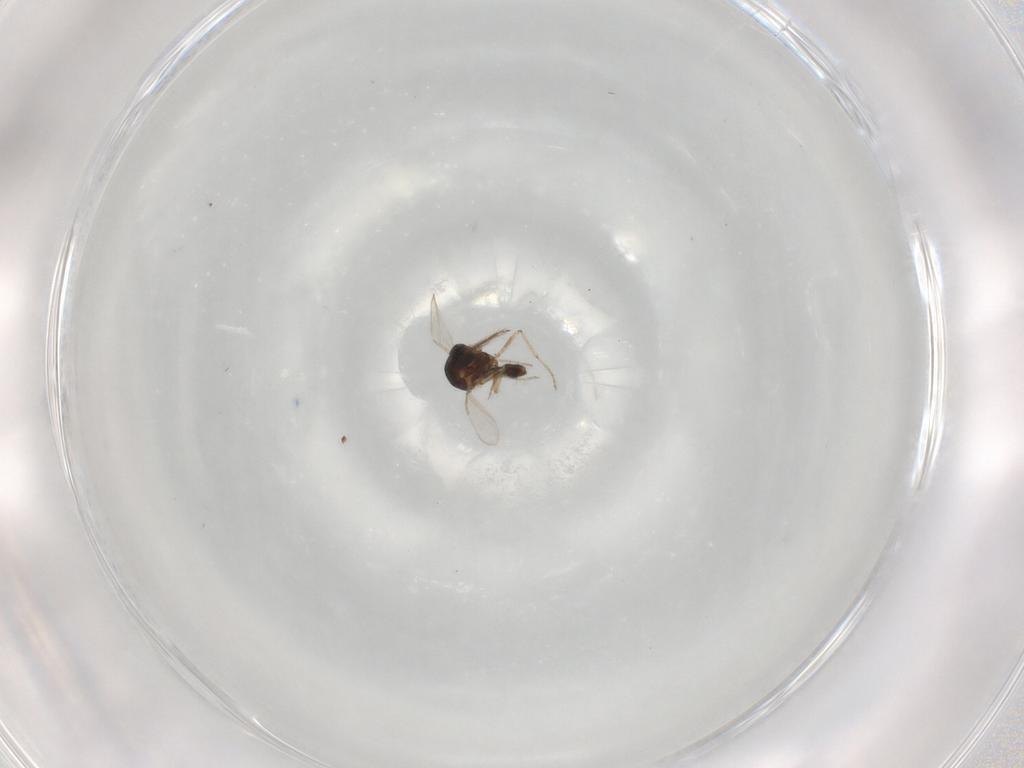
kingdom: Animalia
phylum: Arthropoda
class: Insecta
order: Diptera
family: Ceratopogonidae
